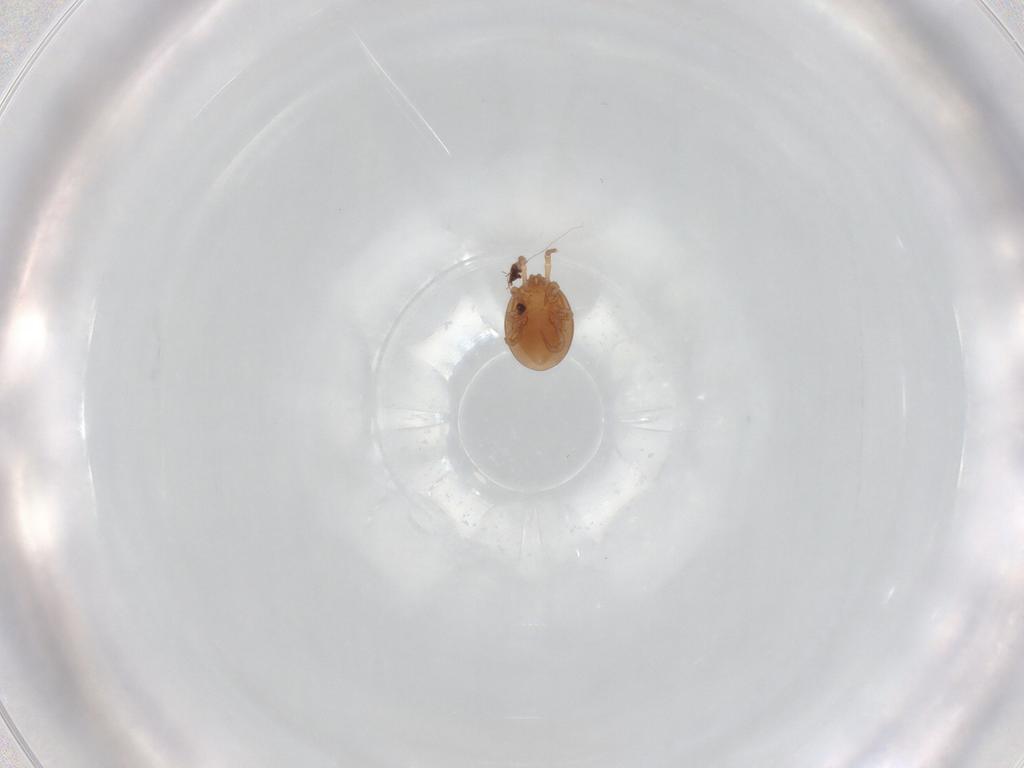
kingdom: Animalia
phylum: Arthropoda
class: Arachnida
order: Mesostigmata
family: Laelapidae
